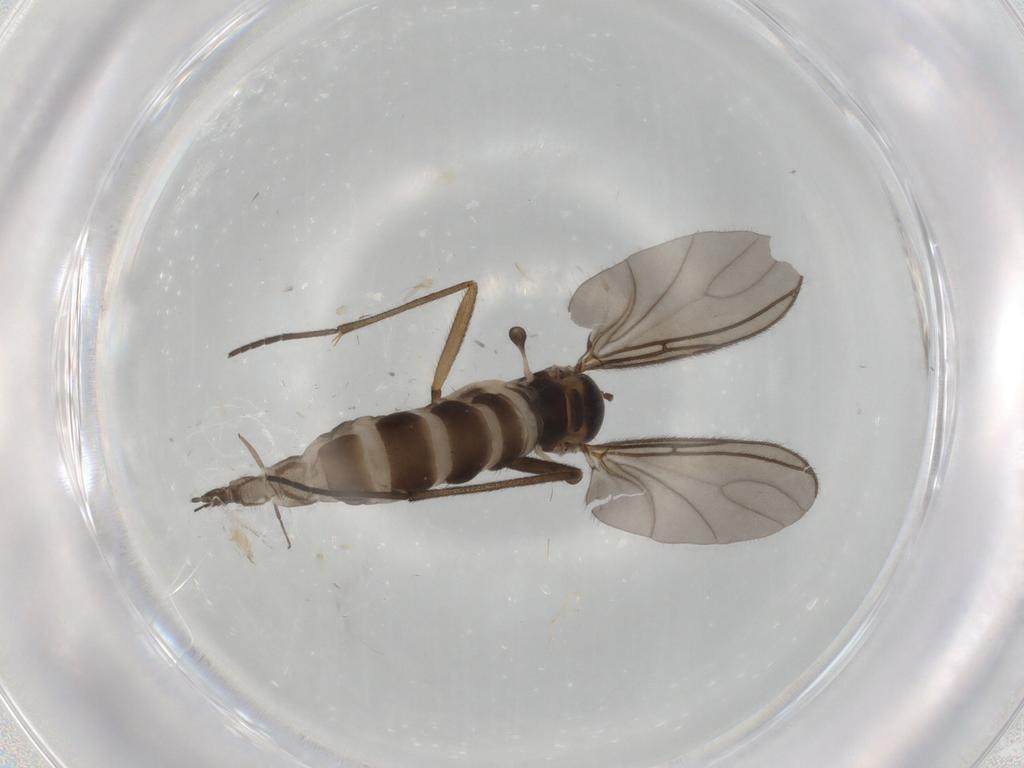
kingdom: Animalia
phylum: Arthropoda
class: Insecta
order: Diptera
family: Sciaridae
